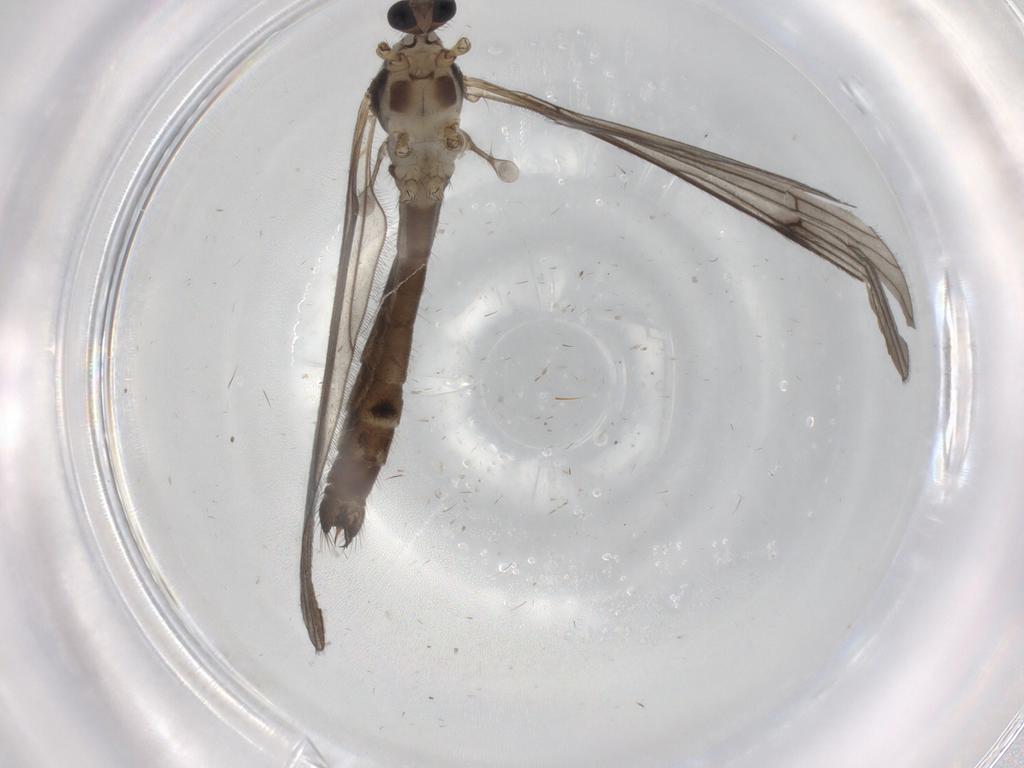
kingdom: Animalia
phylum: Arthropoda
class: Insecta
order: Diptera
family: Limoniidae
